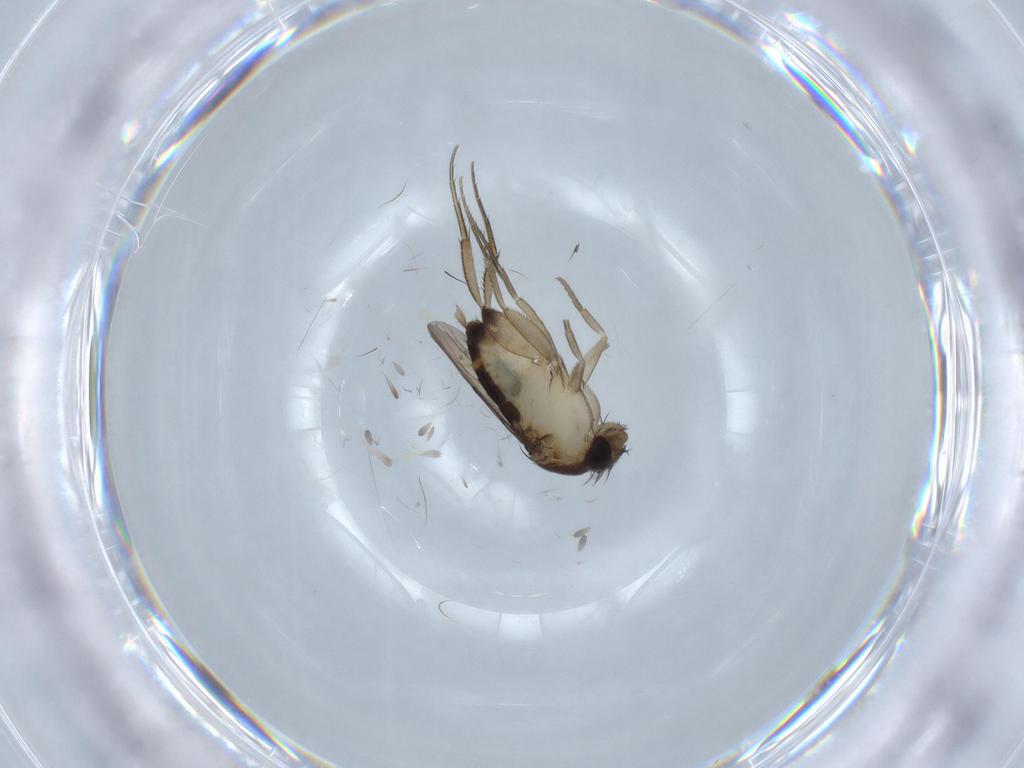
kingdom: Animalia
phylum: Arthropoda
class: Insecta
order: Diptera
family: Phoridae
